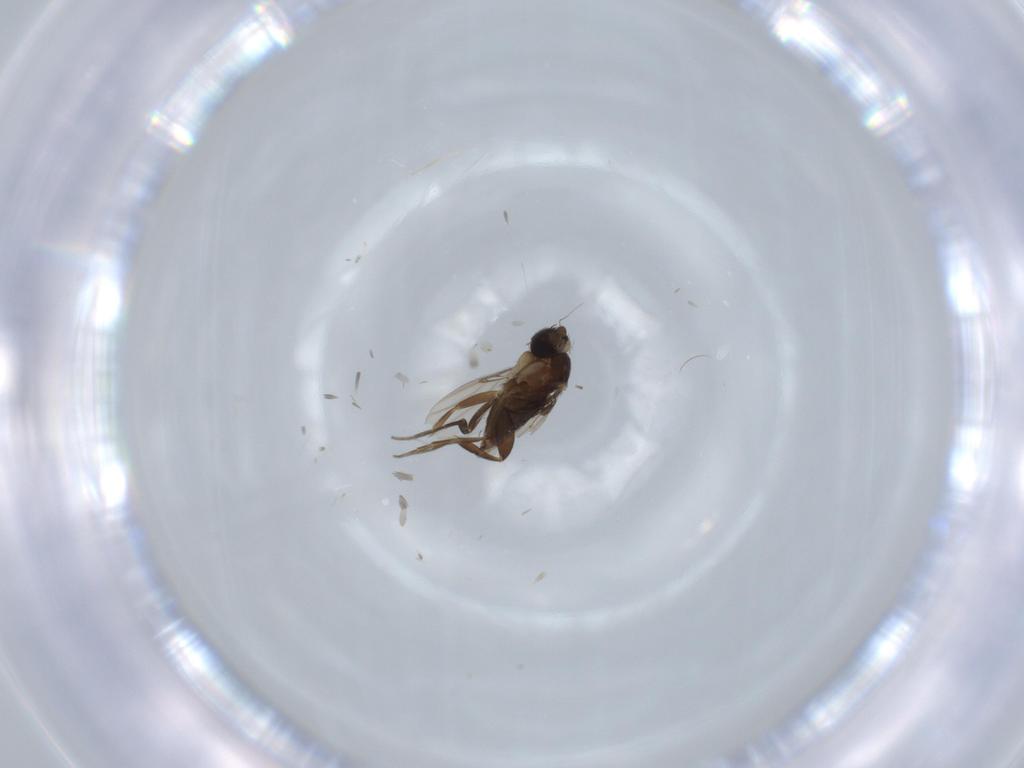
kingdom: Animalia
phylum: Arthropoda
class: Insecta
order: Diptera
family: Phoridae
